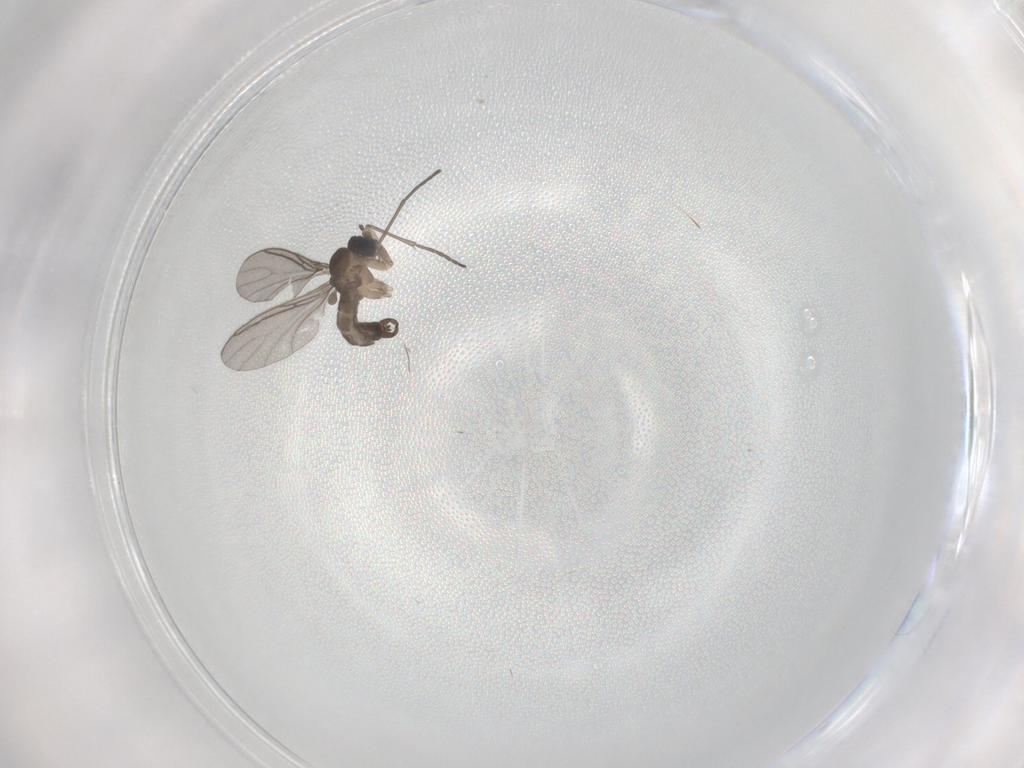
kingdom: Animalia
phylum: Arthropoda
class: Insecta
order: Diptera
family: Sciaridae
